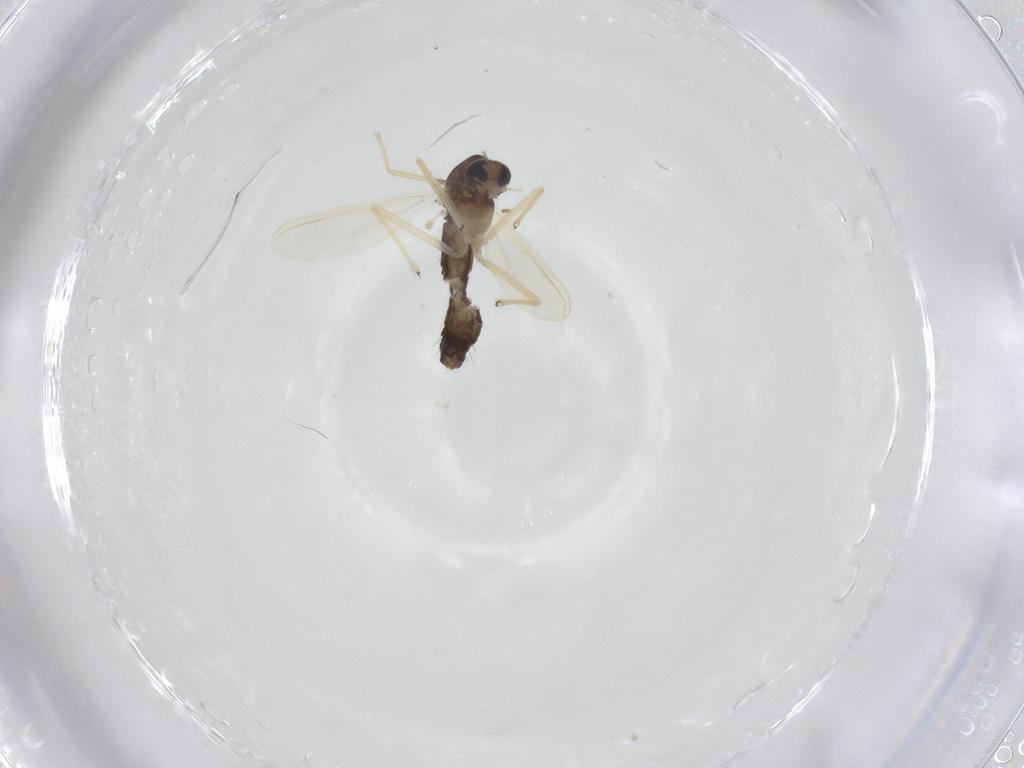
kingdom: Animalia
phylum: Arthropoda
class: Insecta
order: Diptera
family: Chironomidae
